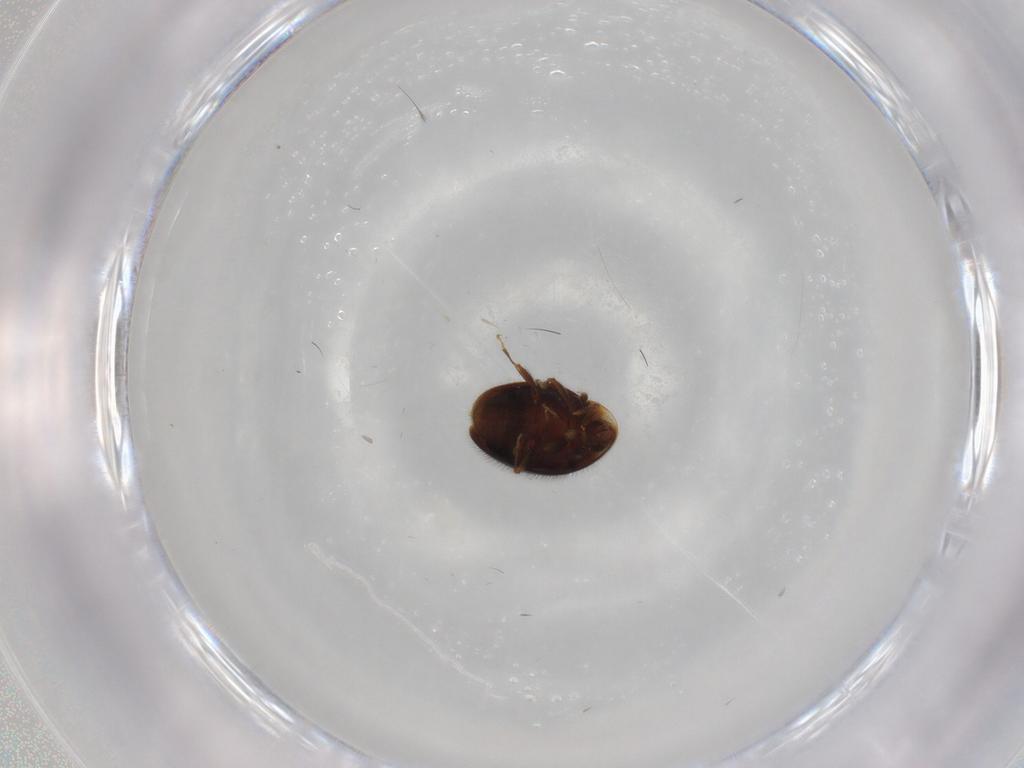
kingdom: Animalia
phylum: Arthropoda
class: Insecta
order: Coleoptera
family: Corylophidae
